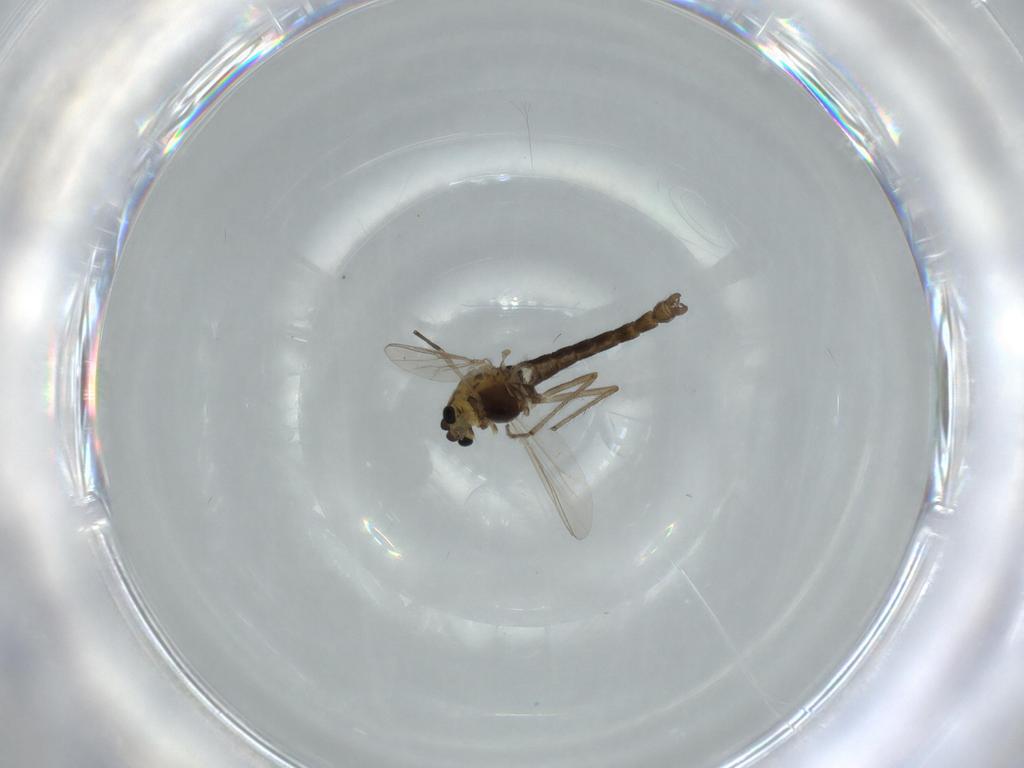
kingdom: Animalia
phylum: Arthropoda
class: Insecta
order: Diptera
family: Chironomidae
